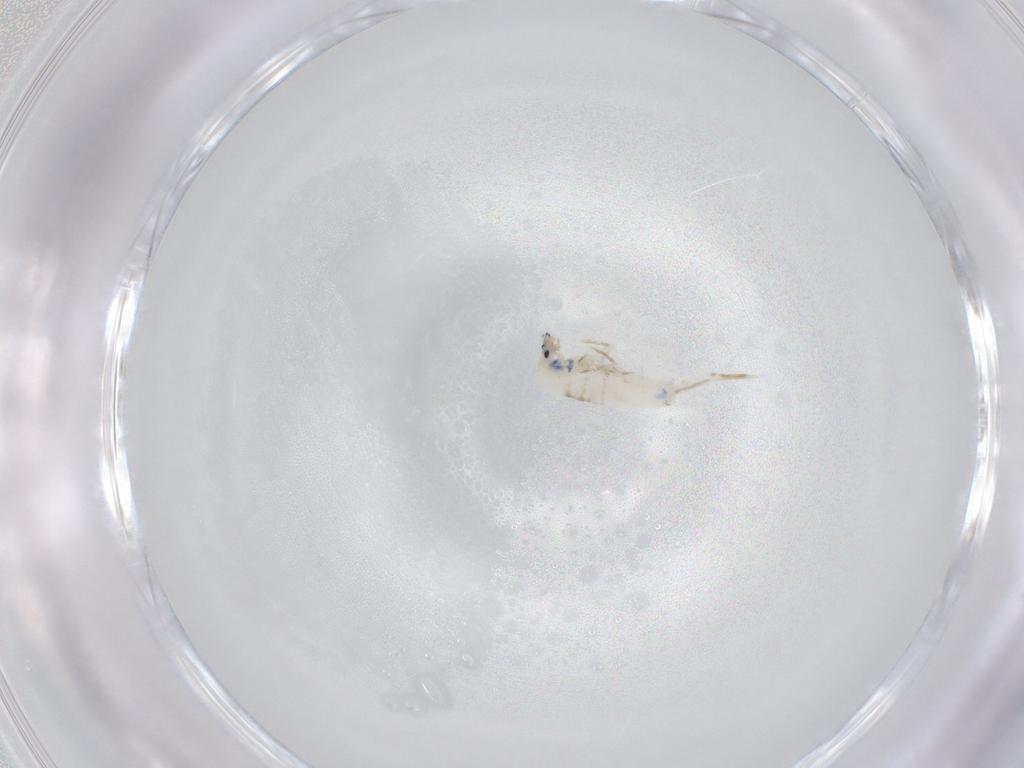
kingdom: Animalia
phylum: Arthropoda
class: Collembola
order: Entomobryomorpha
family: Entomobryidae
